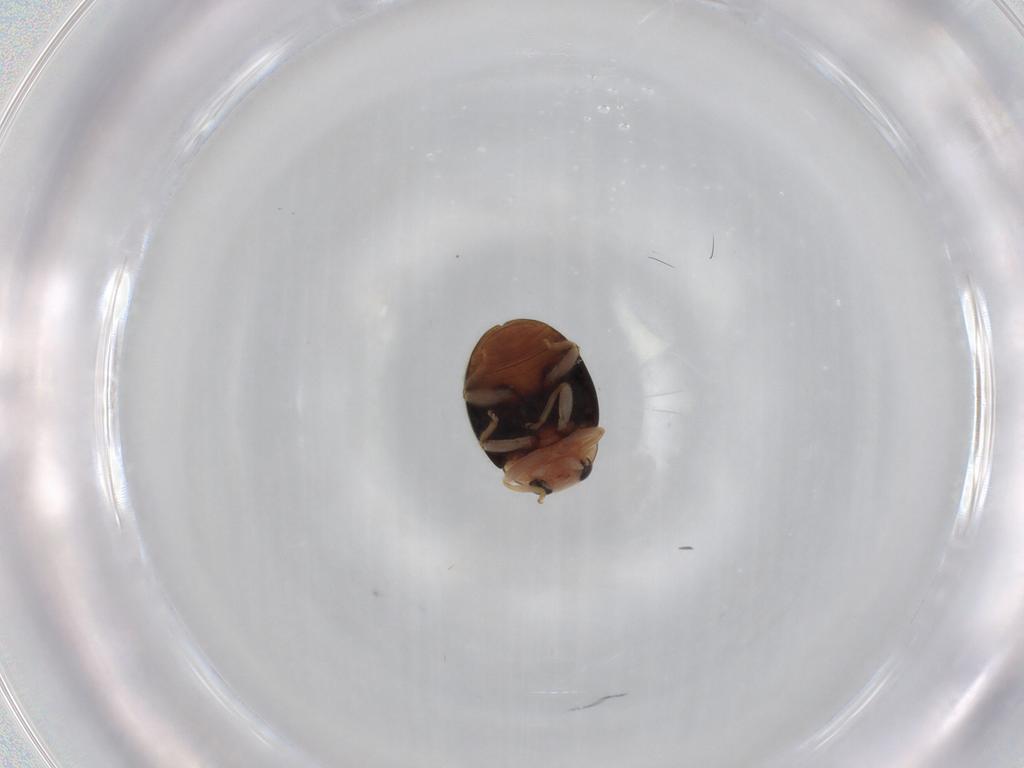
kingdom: Animalia
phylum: Arthropoda
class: Insecta
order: Coleoptera
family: Coccinellidae
